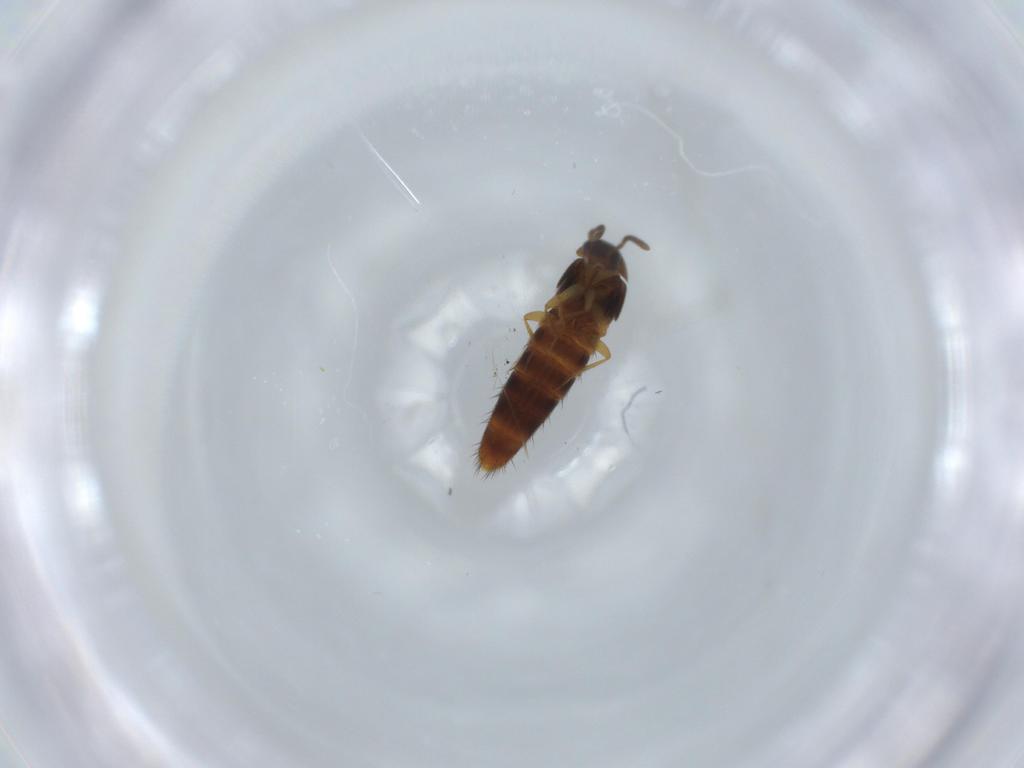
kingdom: Animalia
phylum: Arthropoda
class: Insecta
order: Coleoptera
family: Staphylinidae
